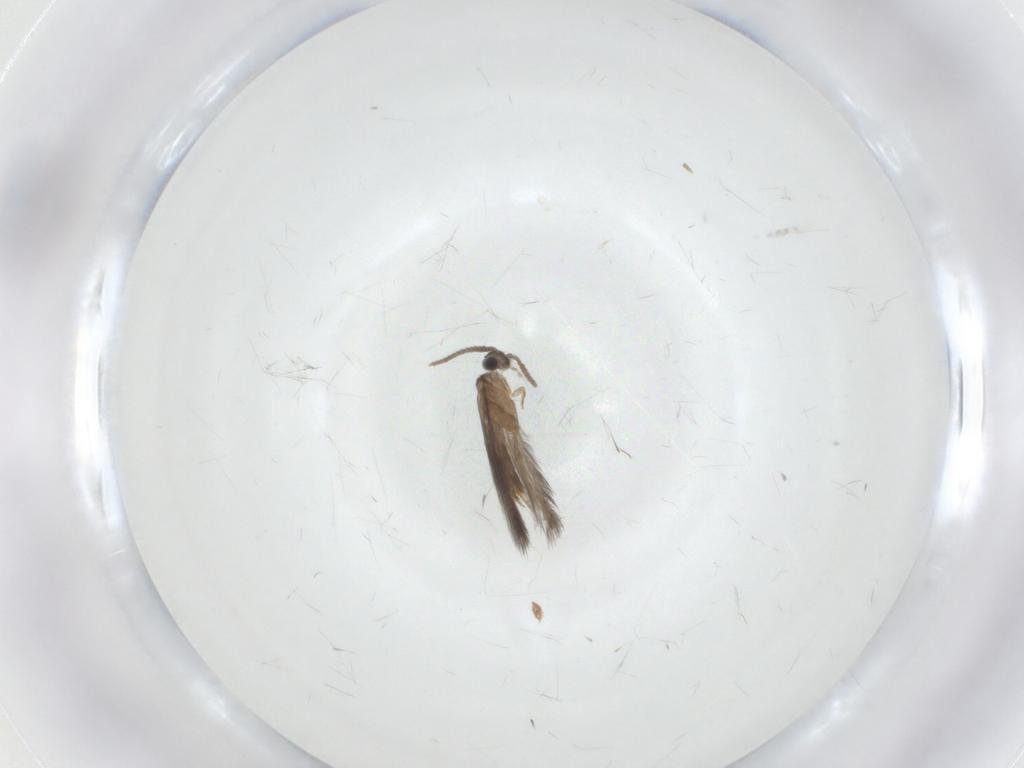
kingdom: Animalia
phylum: Arthropoda
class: Insecta
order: Trichoptera
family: Hydroptilidae
